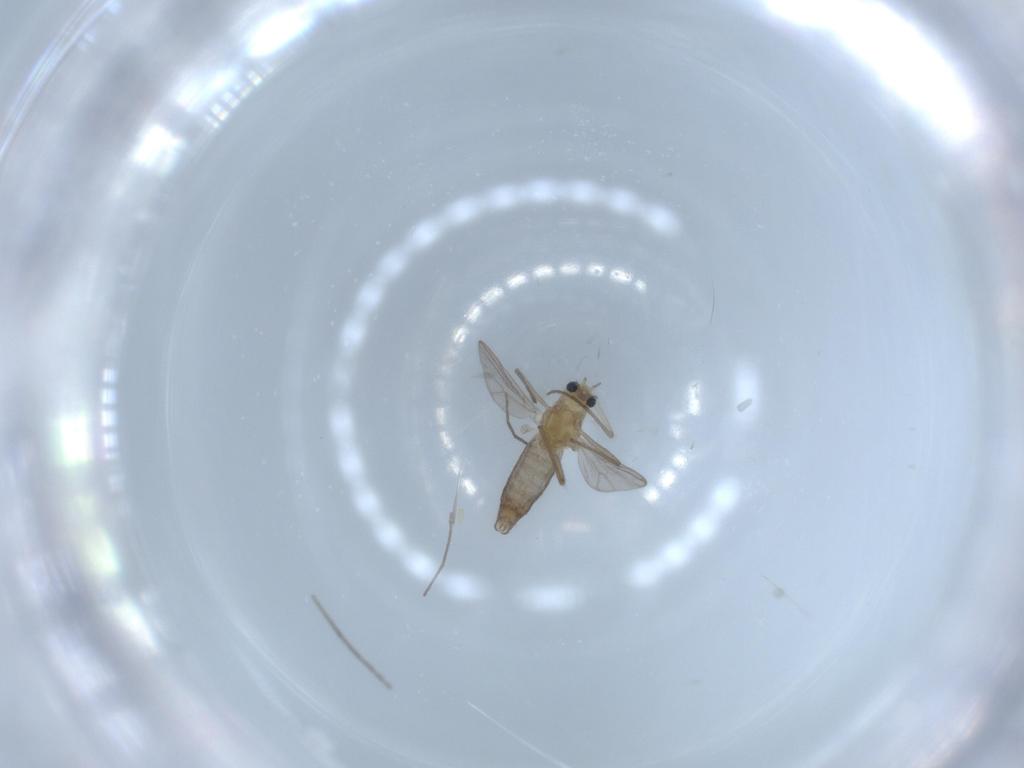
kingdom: Animalia
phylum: Arthropoda
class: Insecta
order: Diptera
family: Chironomidae
